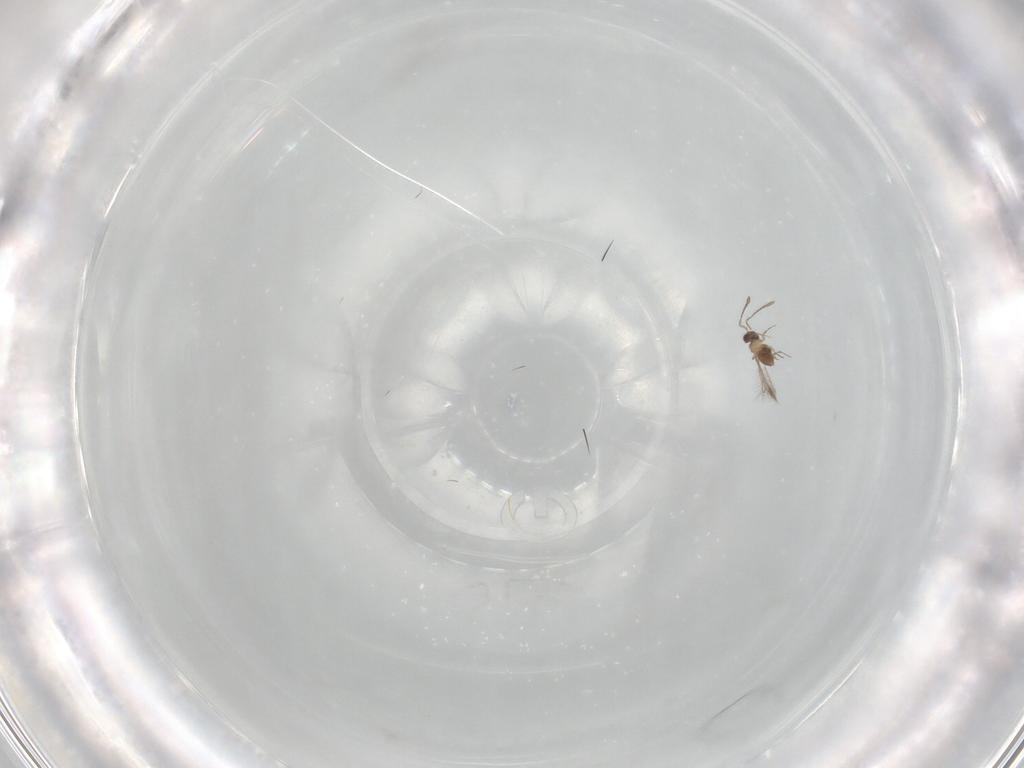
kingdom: Animalia
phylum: Arthropoda
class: Insecta
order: Hymenoptera
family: Mymaridae
